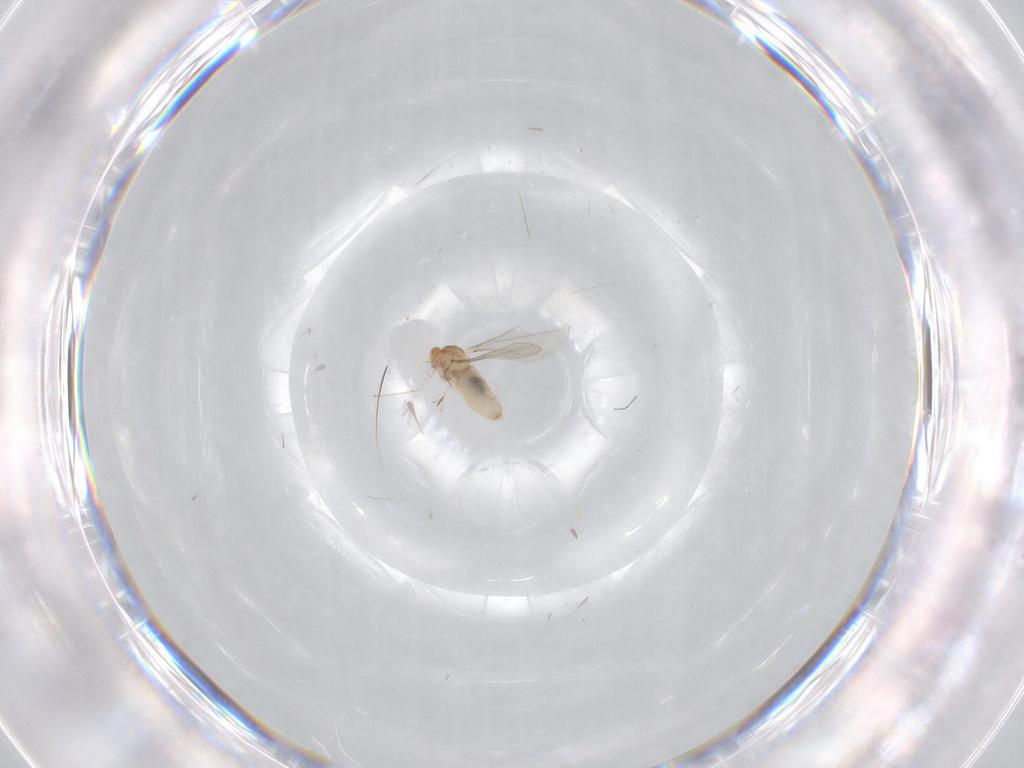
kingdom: Animalia
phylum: Arthropoda
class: Insecta
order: Diptera
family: Cecidomyiidae
